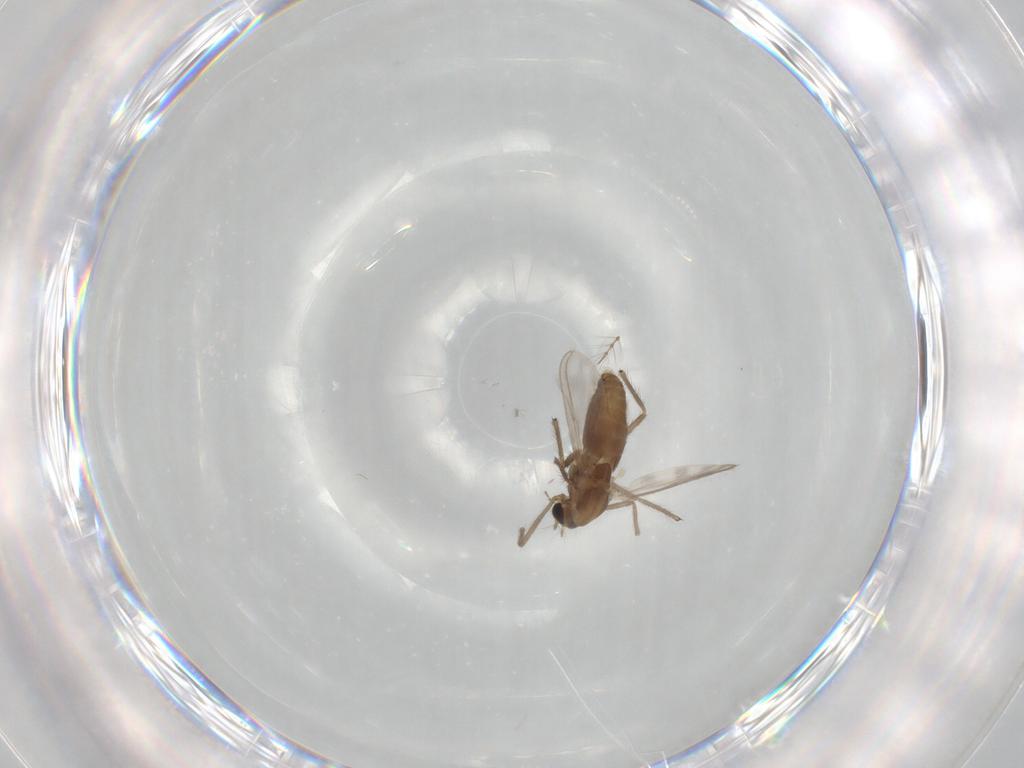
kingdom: Animalia
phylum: Arthropoda
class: Insecta
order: Diptera
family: Chironomidae
